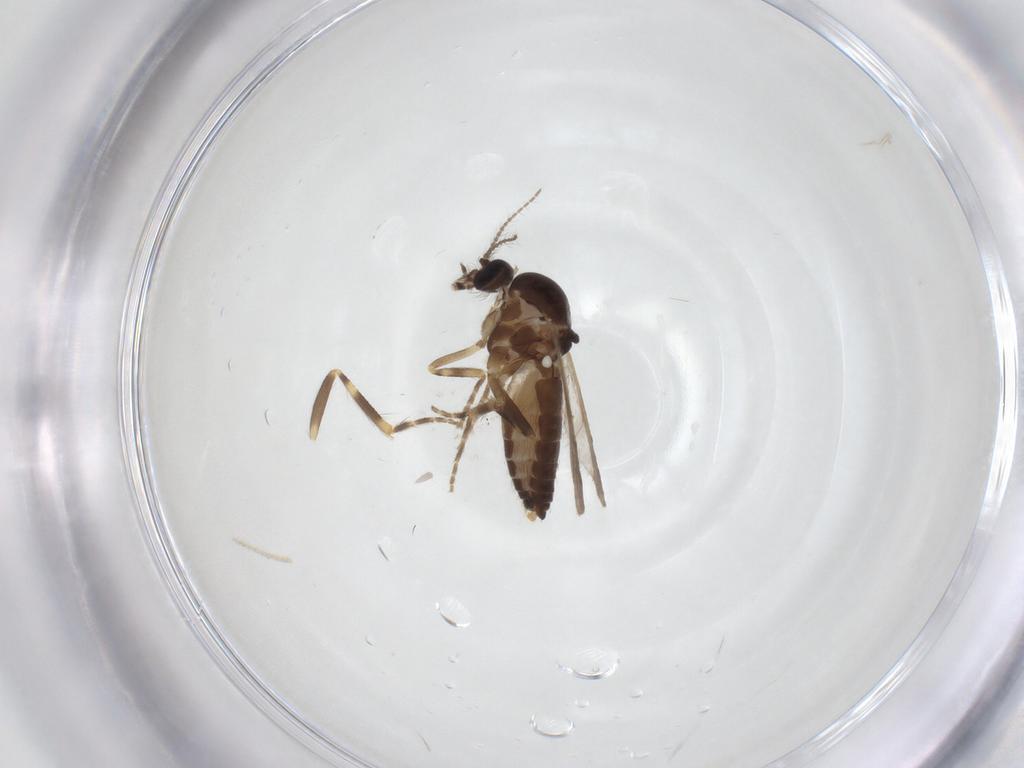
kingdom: Animalia
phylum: Arthropoda
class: Insecta
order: Diptera
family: Ceratopogonidae
